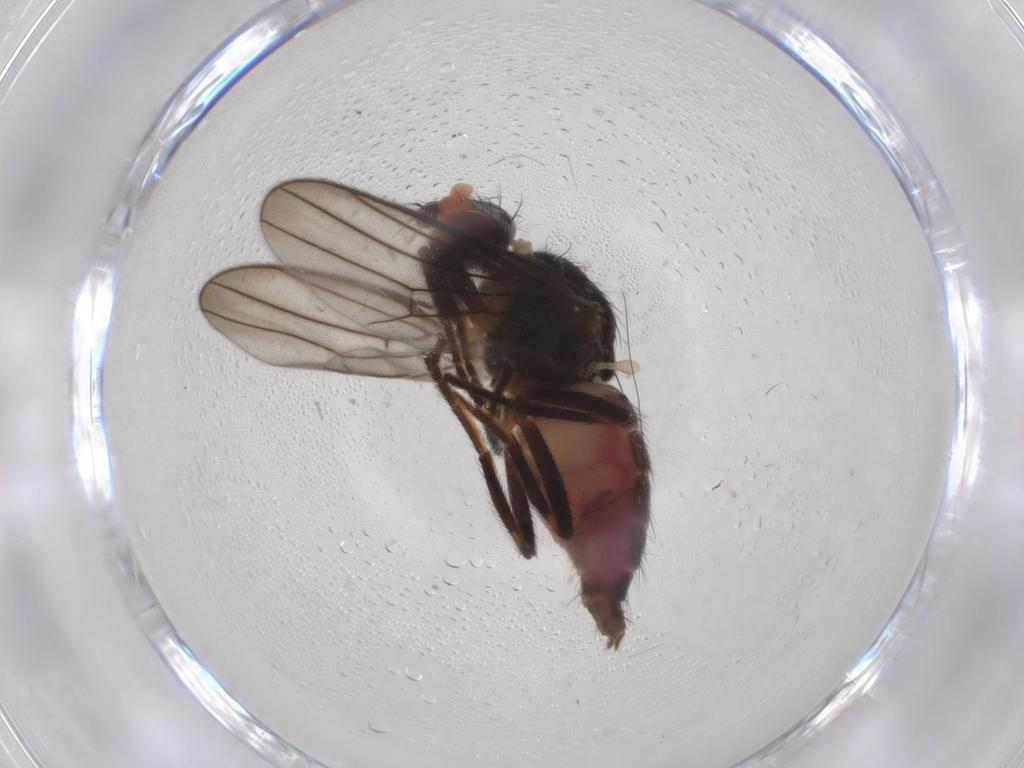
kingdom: Animalia
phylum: Arthropoda
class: Insecta
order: Diptera
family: Chloropidae
